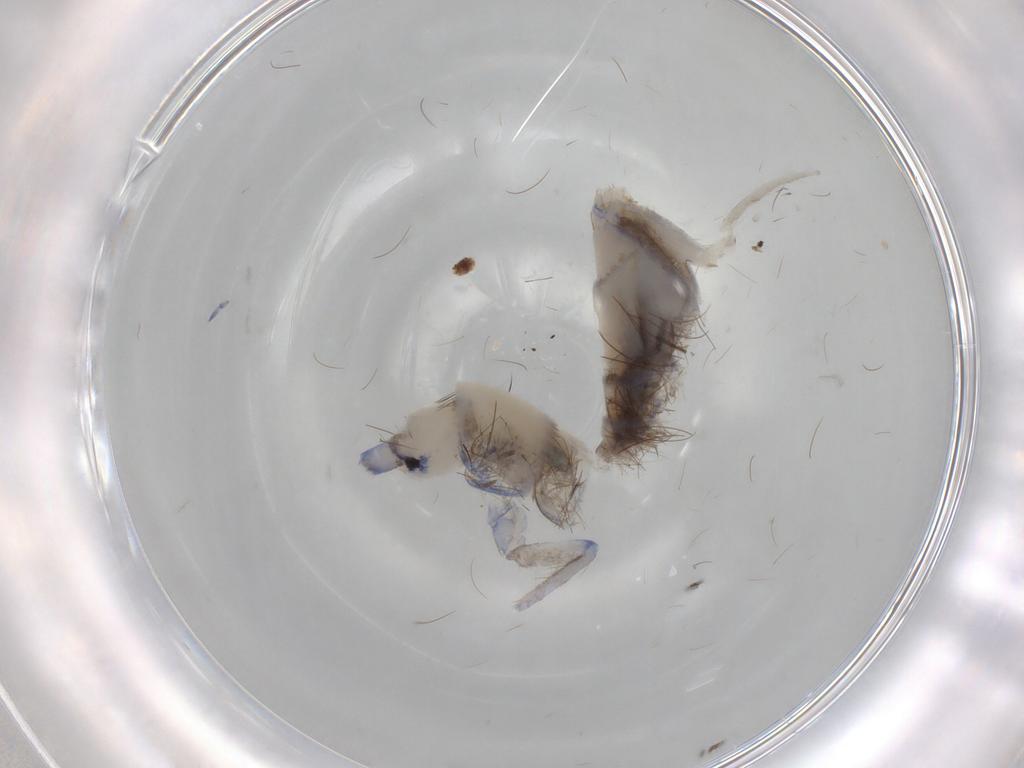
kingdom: Animalia
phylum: Arthropoda
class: Collembola
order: Entomobryomorpha
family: Tomoceridae
